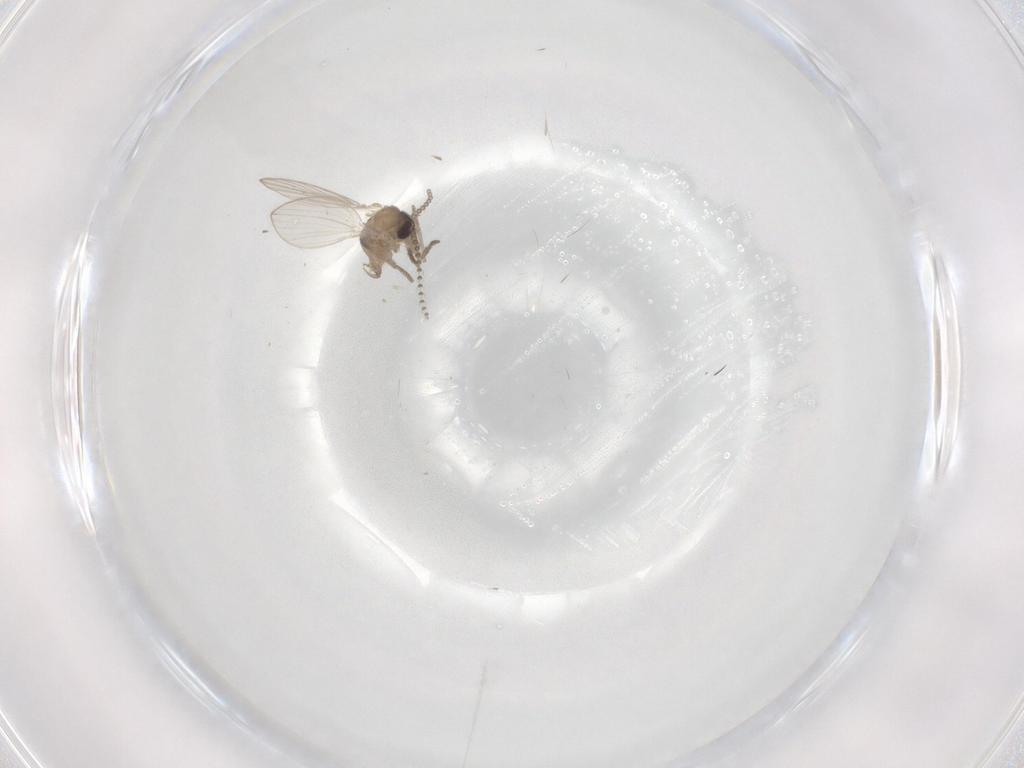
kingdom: Animalia
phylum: Arthropoda
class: Insecta
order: Diptera
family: Psychodidae
